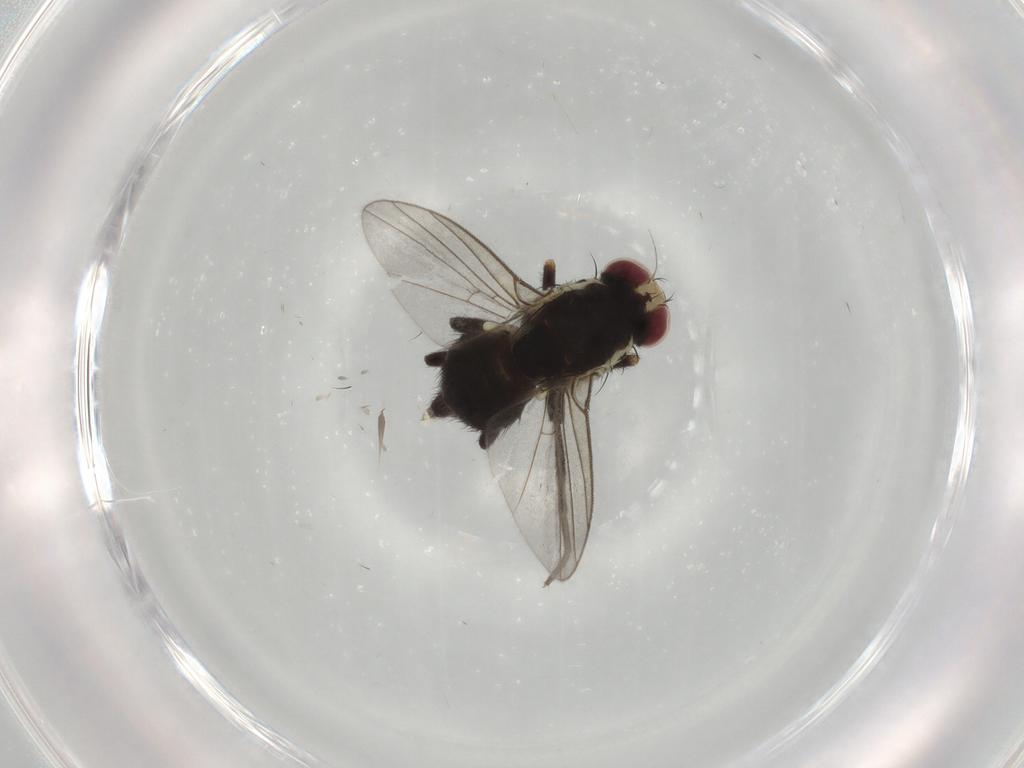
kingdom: Animalia
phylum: Arthropoda
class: Insecta
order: Diptera
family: Agromyzidae
